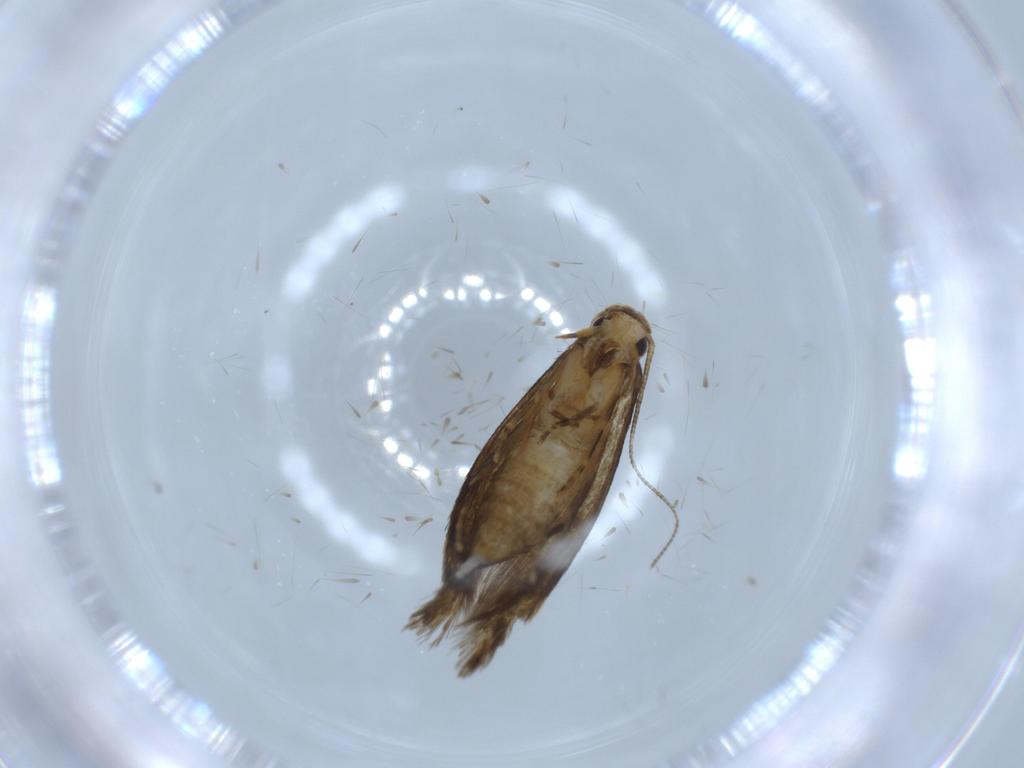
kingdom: Animalia
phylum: Arthropoda
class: Insecta
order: Lepidoptera
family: Tineidae
